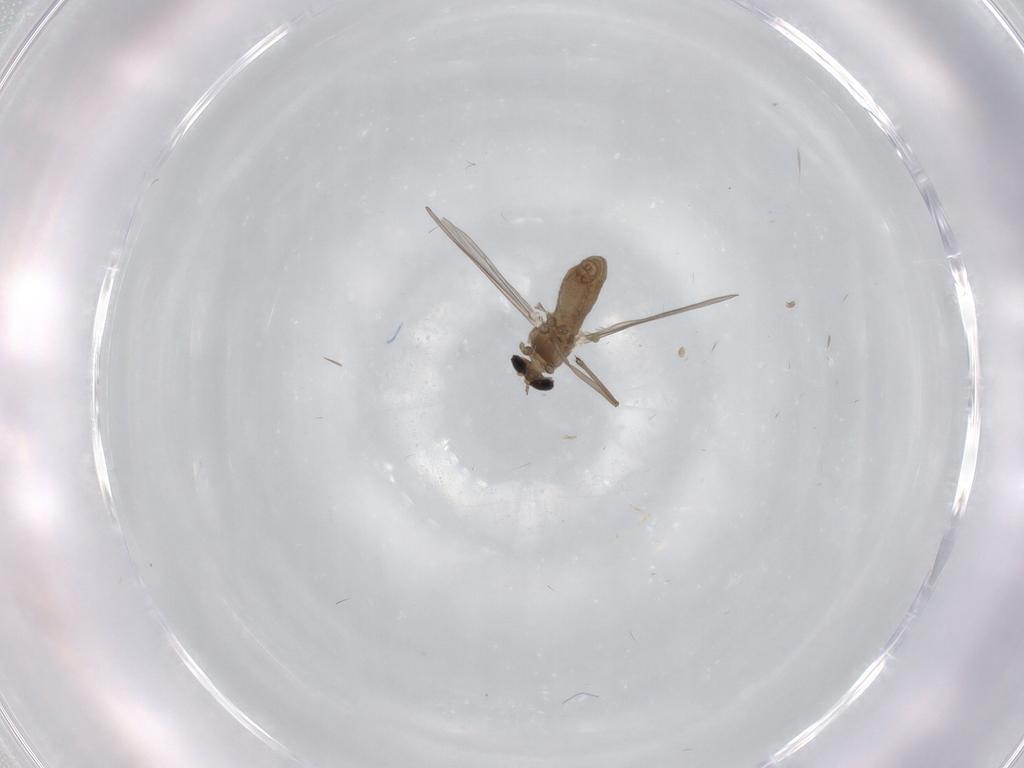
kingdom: Animalia
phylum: Arthropoda
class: Insecta
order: Diptera
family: Chironomidae
